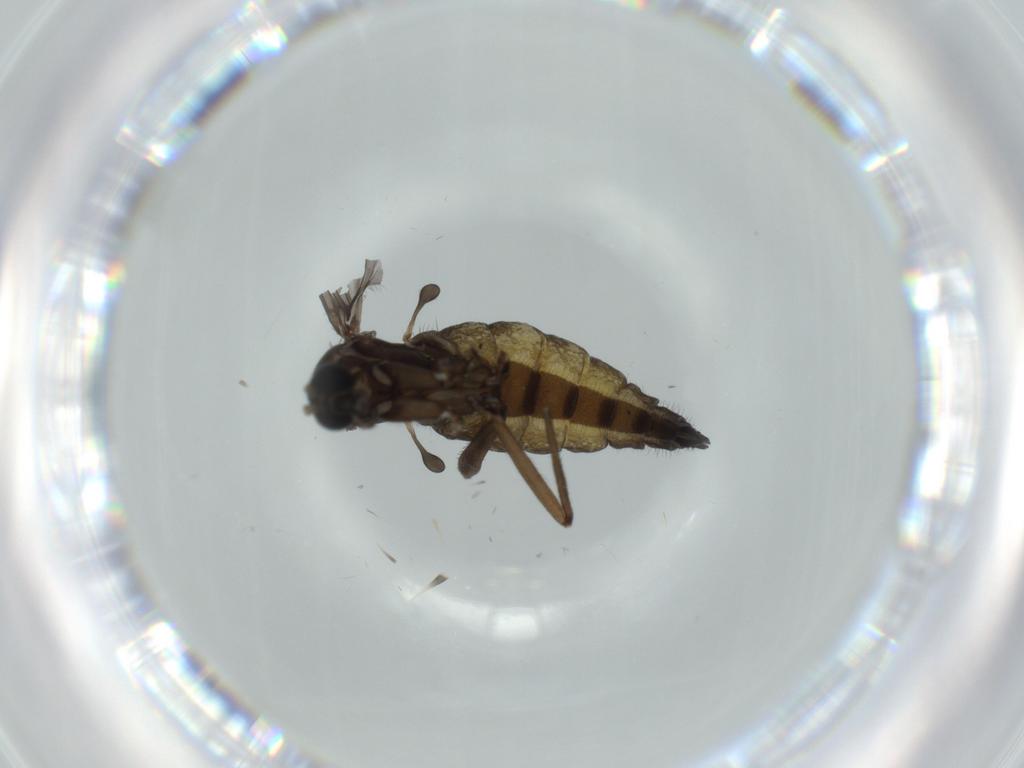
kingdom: Animalia
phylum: Arthropoda
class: Insecta
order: Diptera
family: Sciaridae
